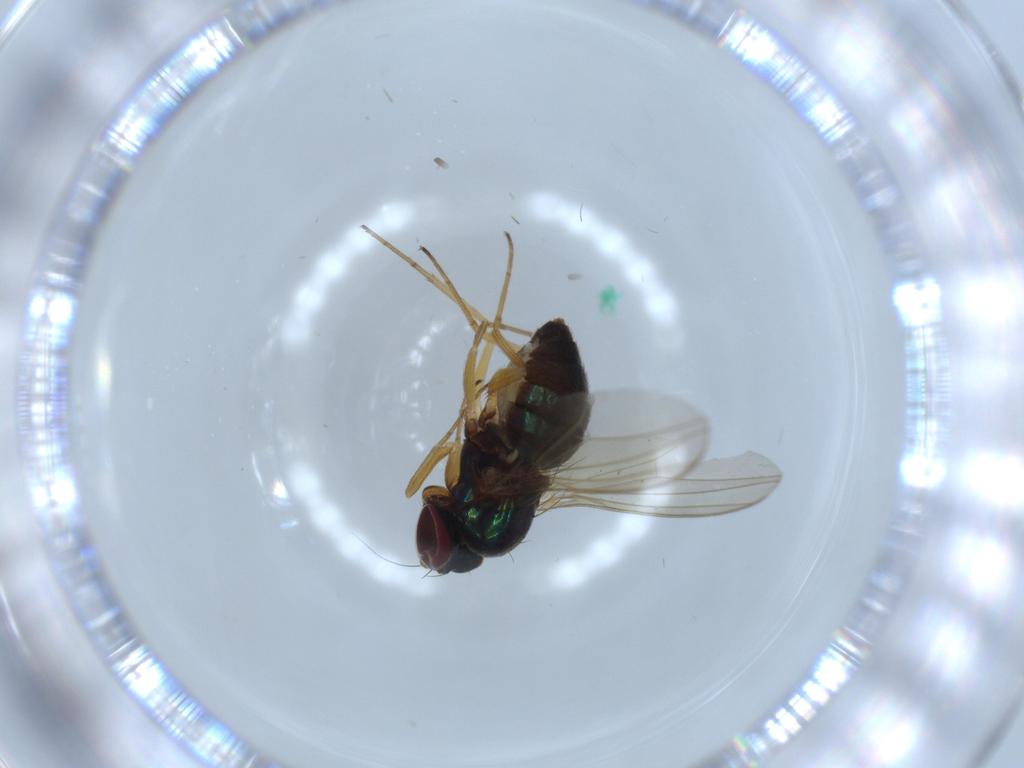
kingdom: Animalia
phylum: Arthropoda
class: Insecta
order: Diptera
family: Dolichopodidae
